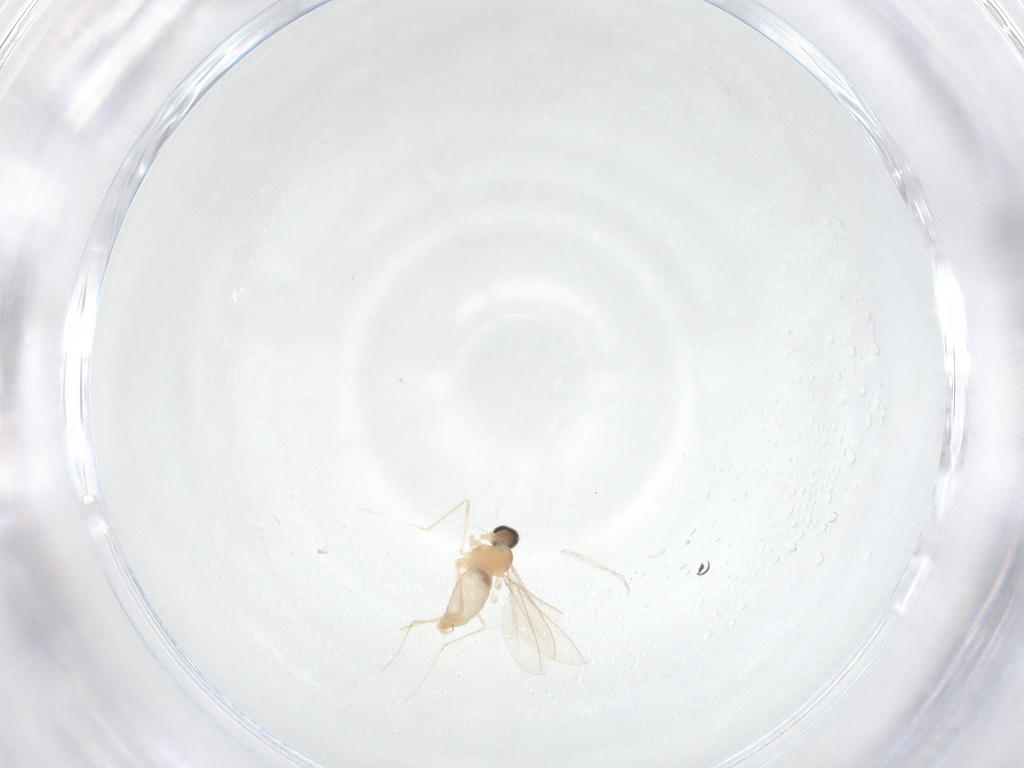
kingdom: Animalia
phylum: Arthropoda
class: Insecta
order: Diptera
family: Cecidomyiidae
